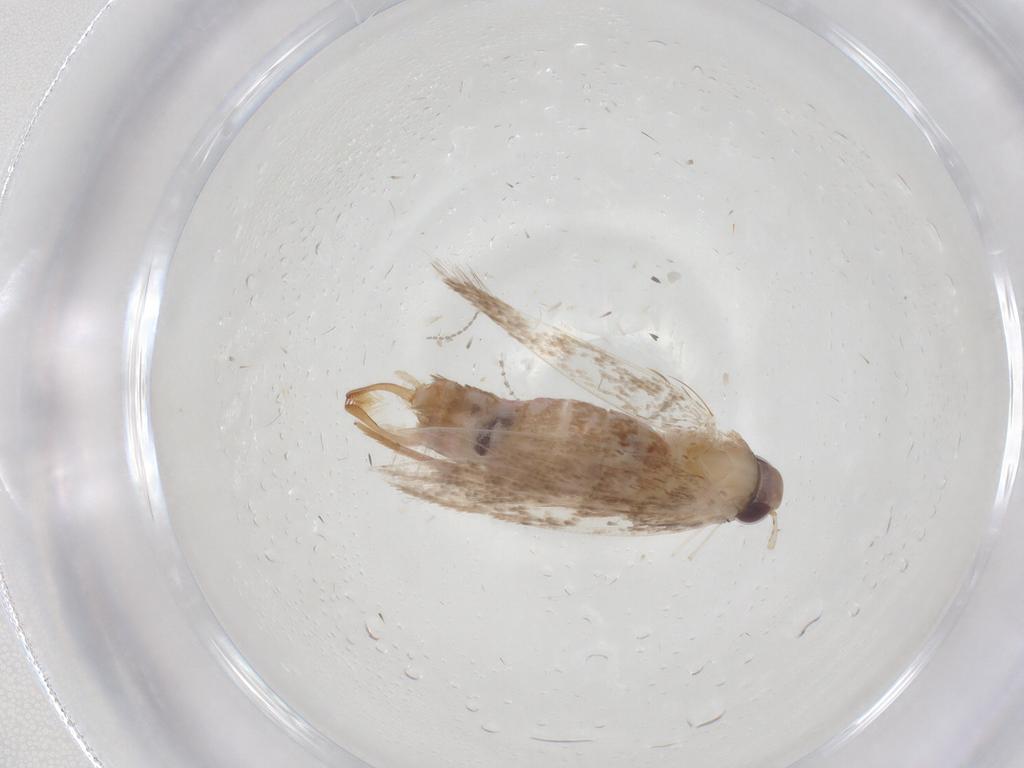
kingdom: Animalia
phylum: Arthropoda
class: Insecta
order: Lepidoptera
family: Cosmopterigidae
